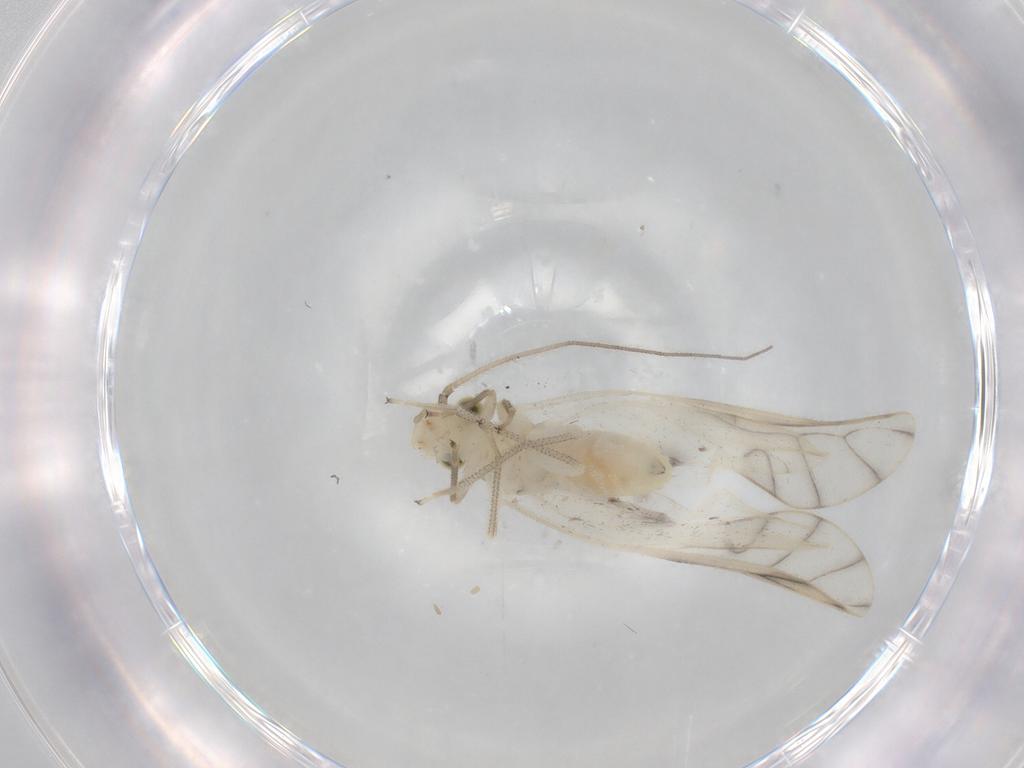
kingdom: Animalia
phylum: Arthropoda
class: Insecta
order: Psocodea
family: Caeciliusidae
